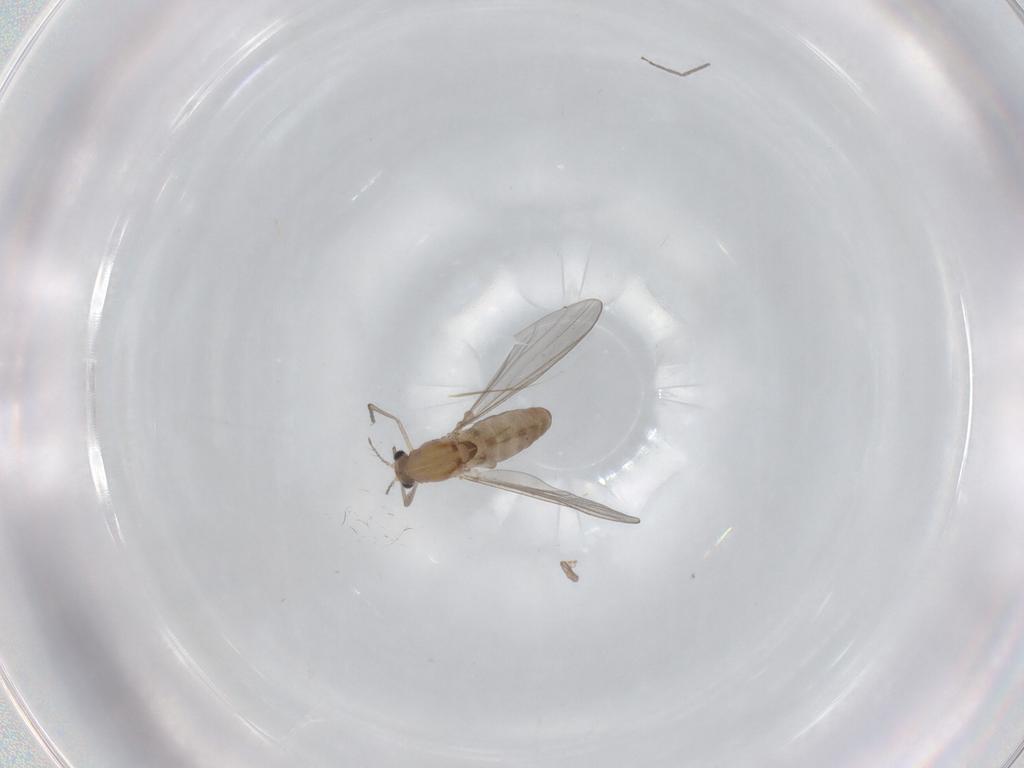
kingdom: Animalia
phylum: Arthropoda
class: Insecta
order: Diptera
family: Chironomidae
